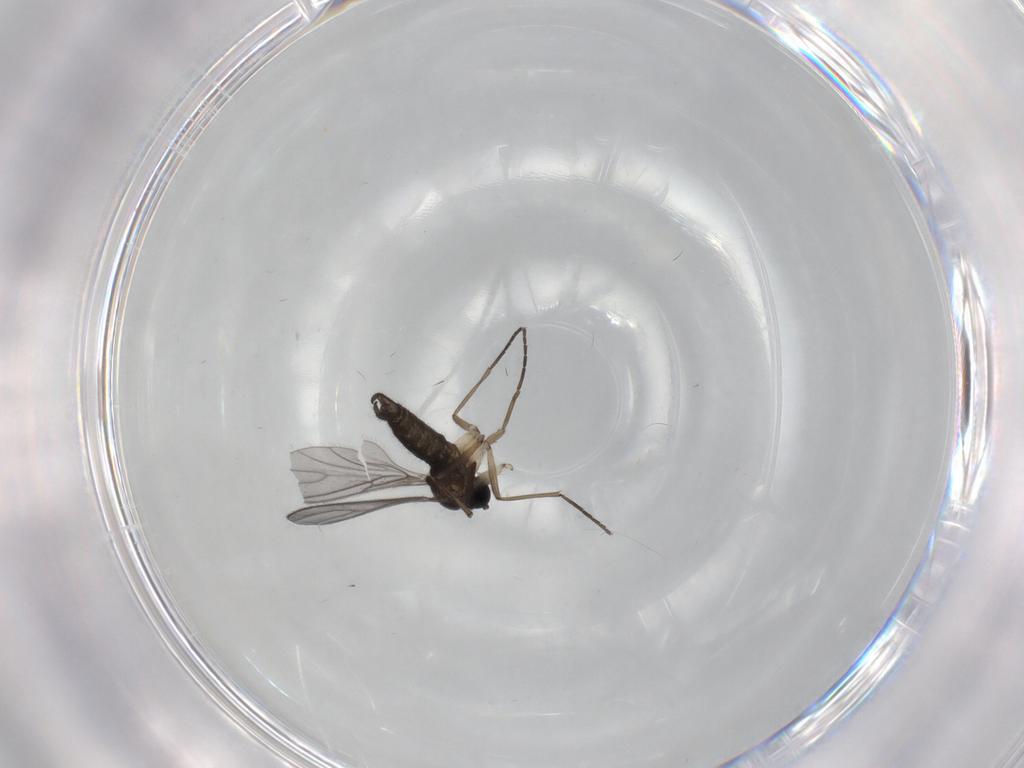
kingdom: Animalia
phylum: Arthropoda
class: Insecta
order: Diptera
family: Sciaridae
